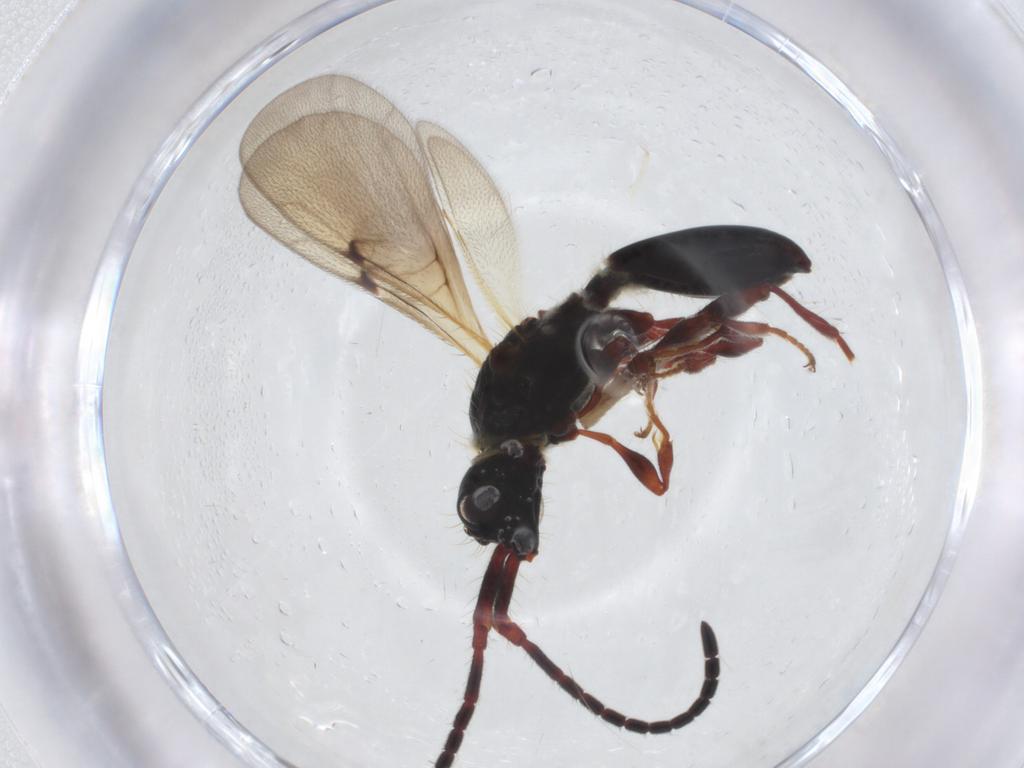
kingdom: Animalia
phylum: Arthropoda
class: Insecta
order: Hymenoptera
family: Diapriidae
